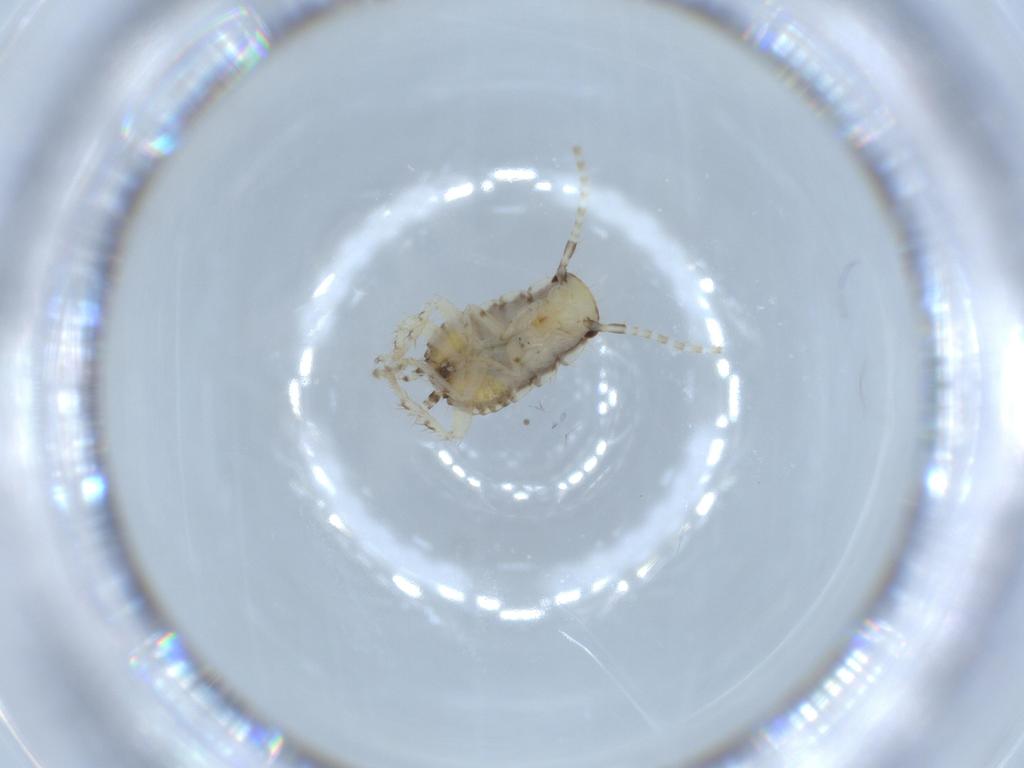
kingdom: Animalia
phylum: Arthropoda
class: Insecta
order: Blattodea
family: Ectobiidae
